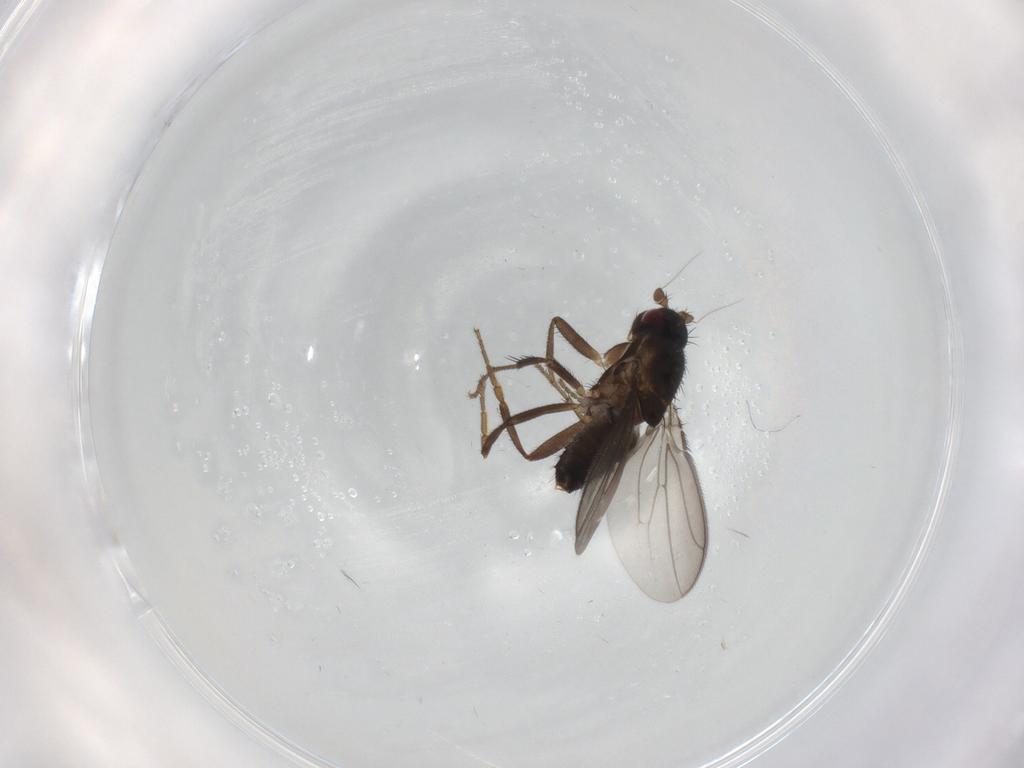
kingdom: Animalia
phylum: Arthropoda
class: Insecta
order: Diptera
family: Sphaeroceridae
